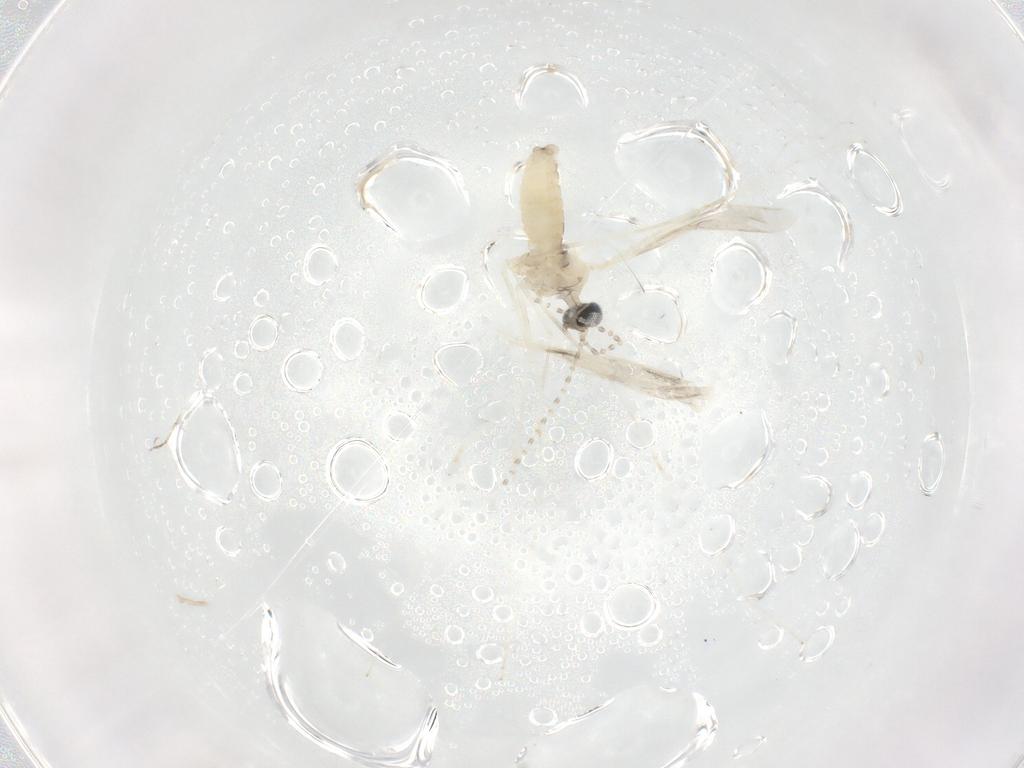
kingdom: Animalia
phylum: Arthropoda
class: Insecta
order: Diptera
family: Cecidomyiidae
